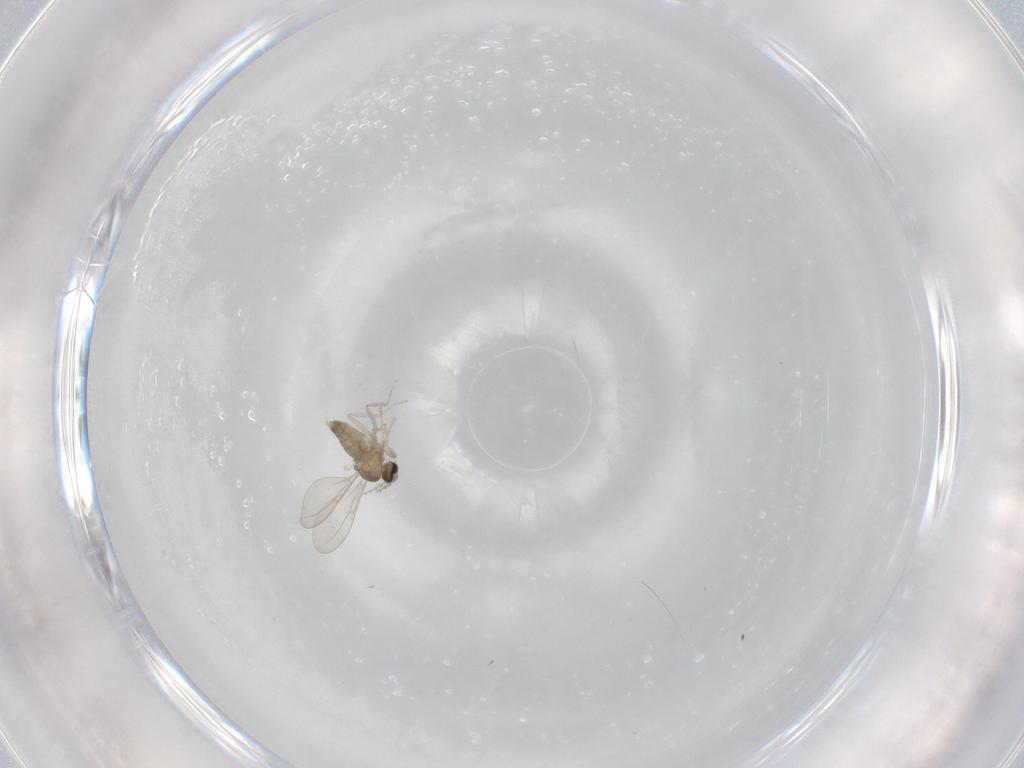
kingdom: Animalia
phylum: Arthropoda
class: Insecta
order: Diptera
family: Cecidomyiidae
